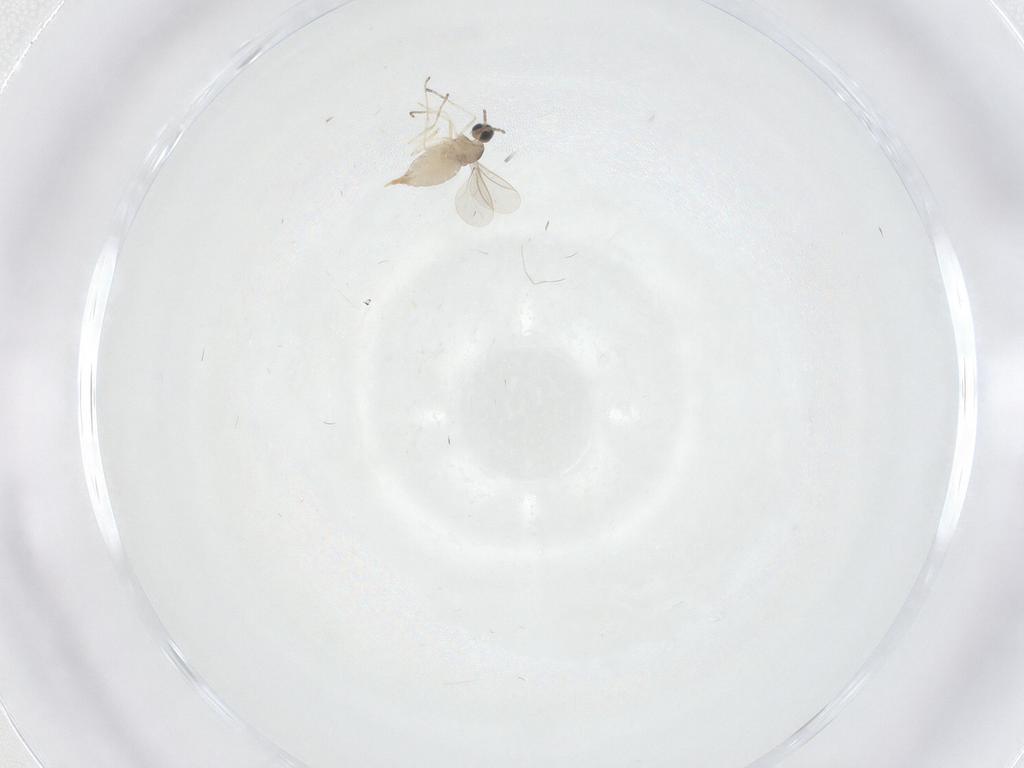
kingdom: Animalia
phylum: Arthropoda
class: Insecta
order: Diptera
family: Cecidomyiidae
